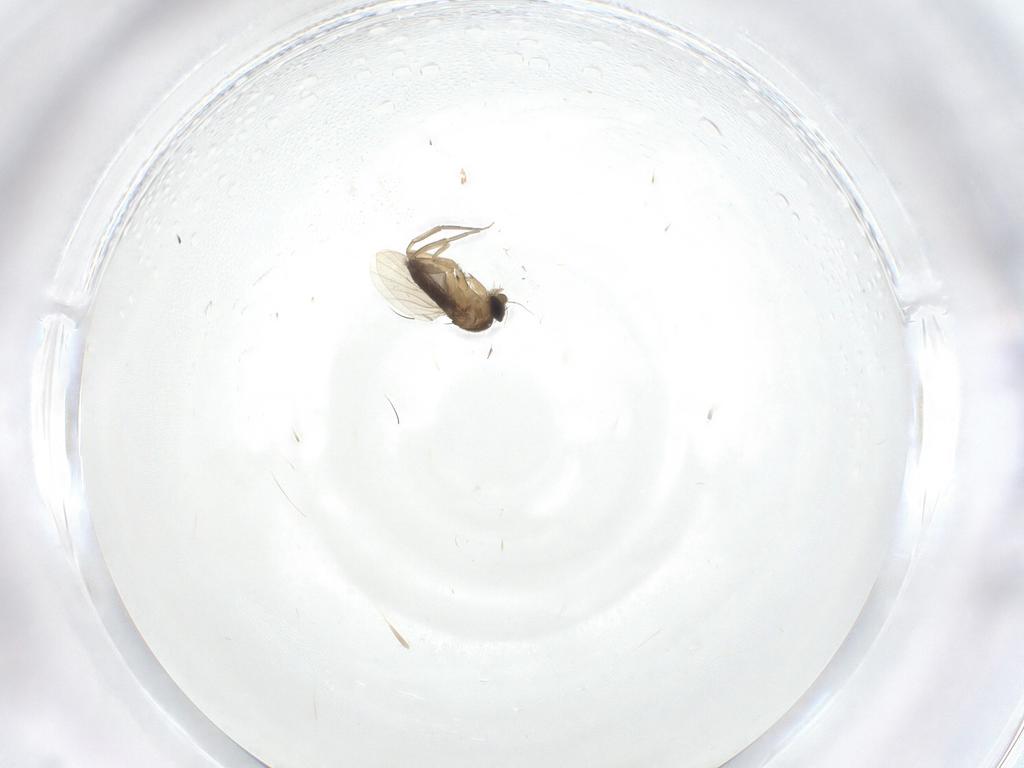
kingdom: Animalia
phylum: Arthropoda
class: Insecta
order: Diptera
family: Phoridae
